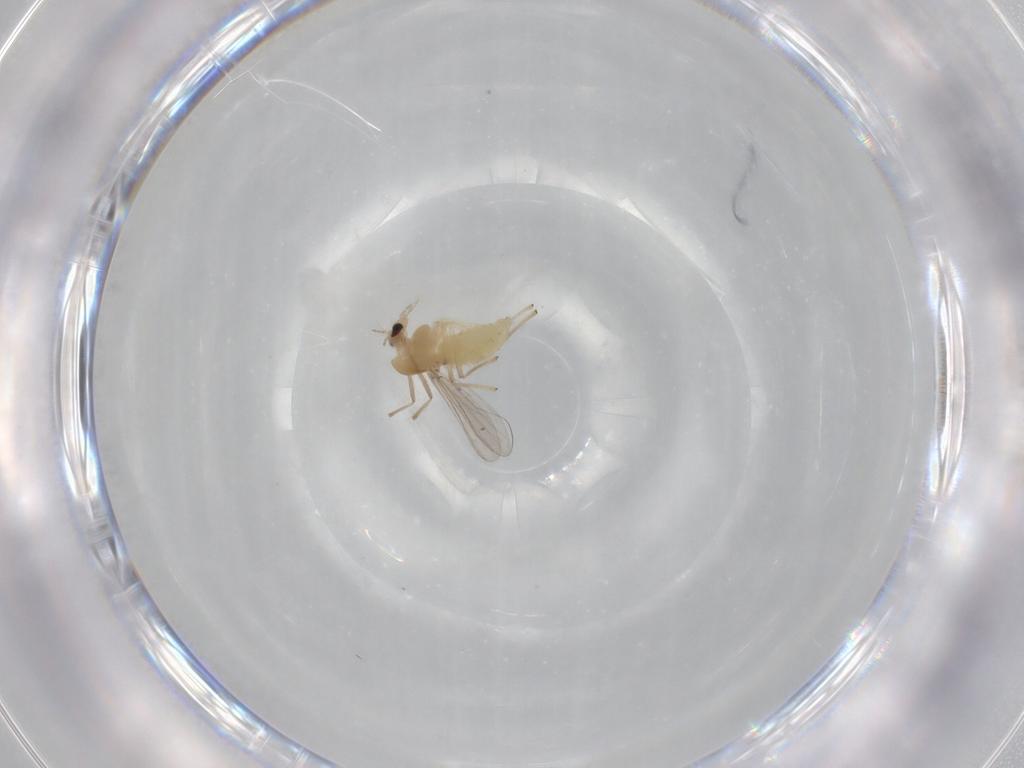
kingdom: Animalia
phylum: Arthropoda
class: Insecta
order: Diptera
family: Chironomidae
